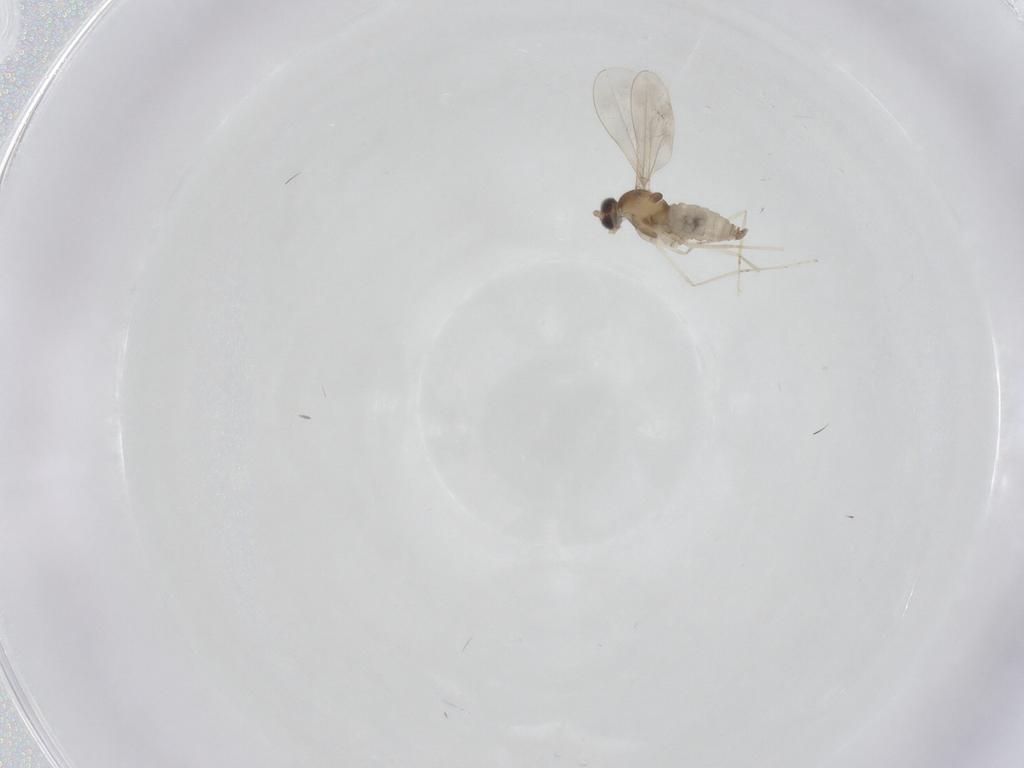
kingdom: Animalia
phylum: Arthropoda
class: Insecta
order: Diptera
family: Cecidomyiidae
